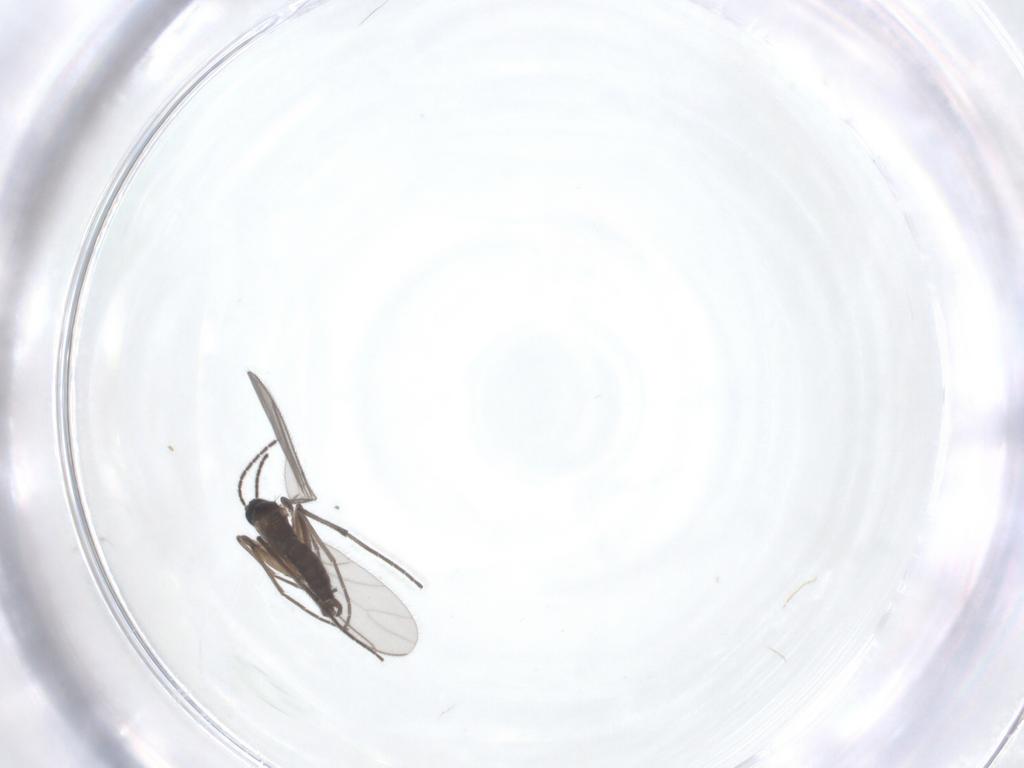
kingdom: Animalia
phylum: Arthropoda
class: Insecta
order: Diptera
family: Sciaridae
